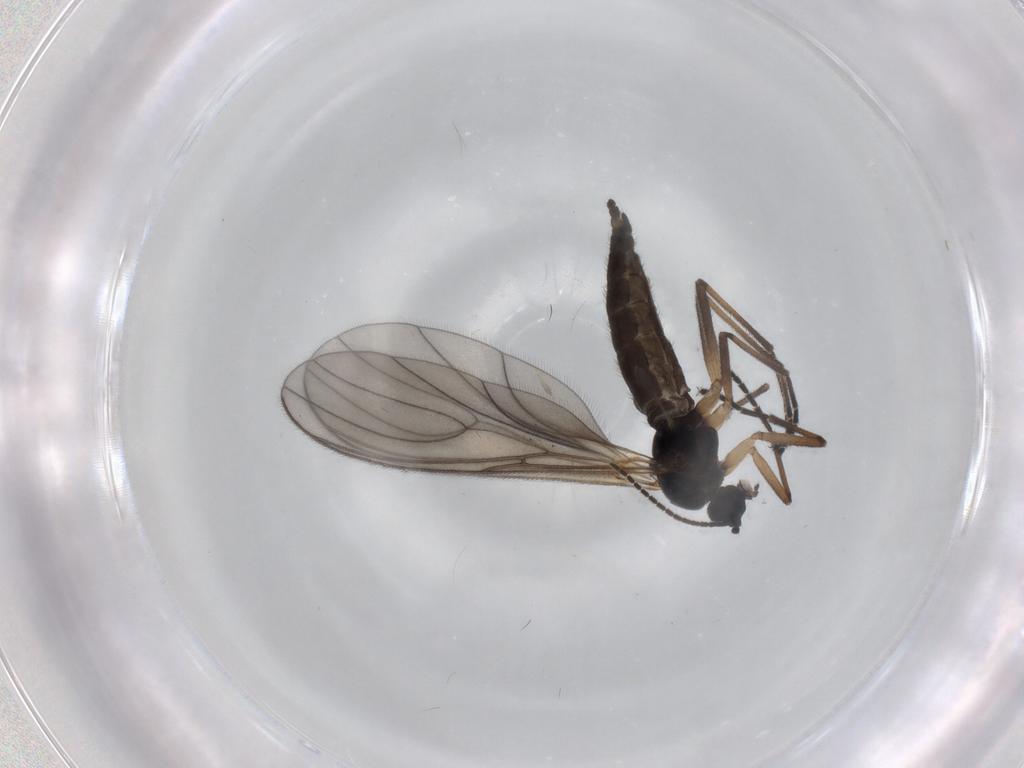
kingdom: Animalia
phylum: Arthropoda
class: Insecta
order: Diptera
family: Sciaridae
